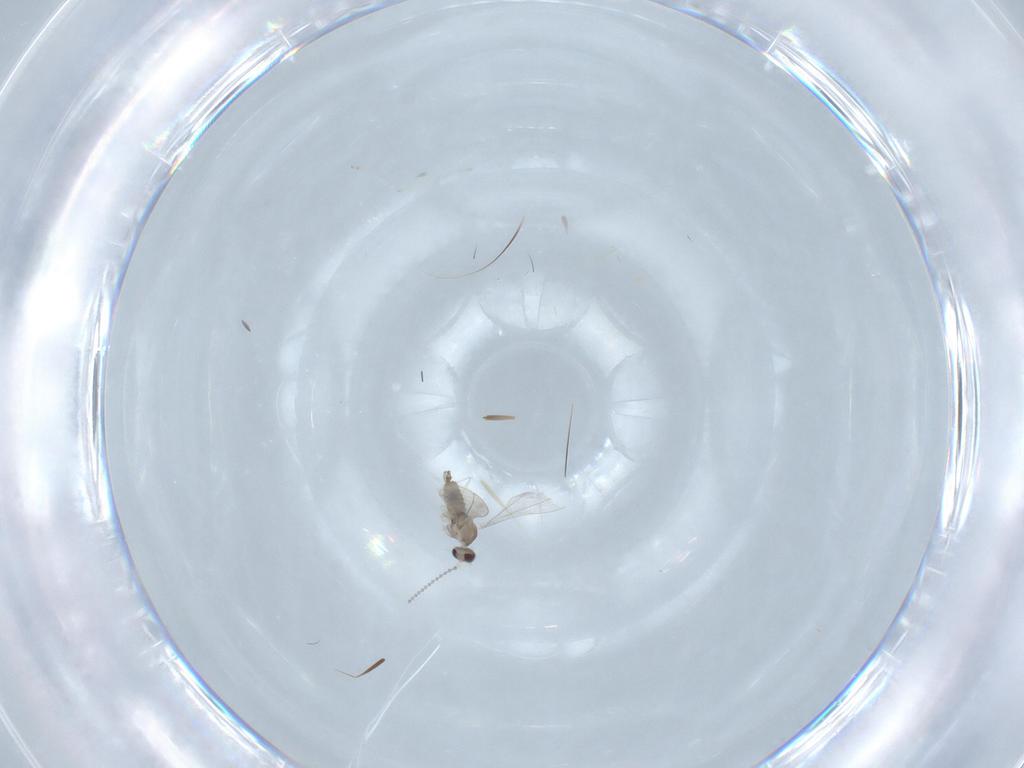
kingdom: Animalia
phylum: Arthropoda
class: Insecta
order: Diptera
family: Cecidomyiidae
